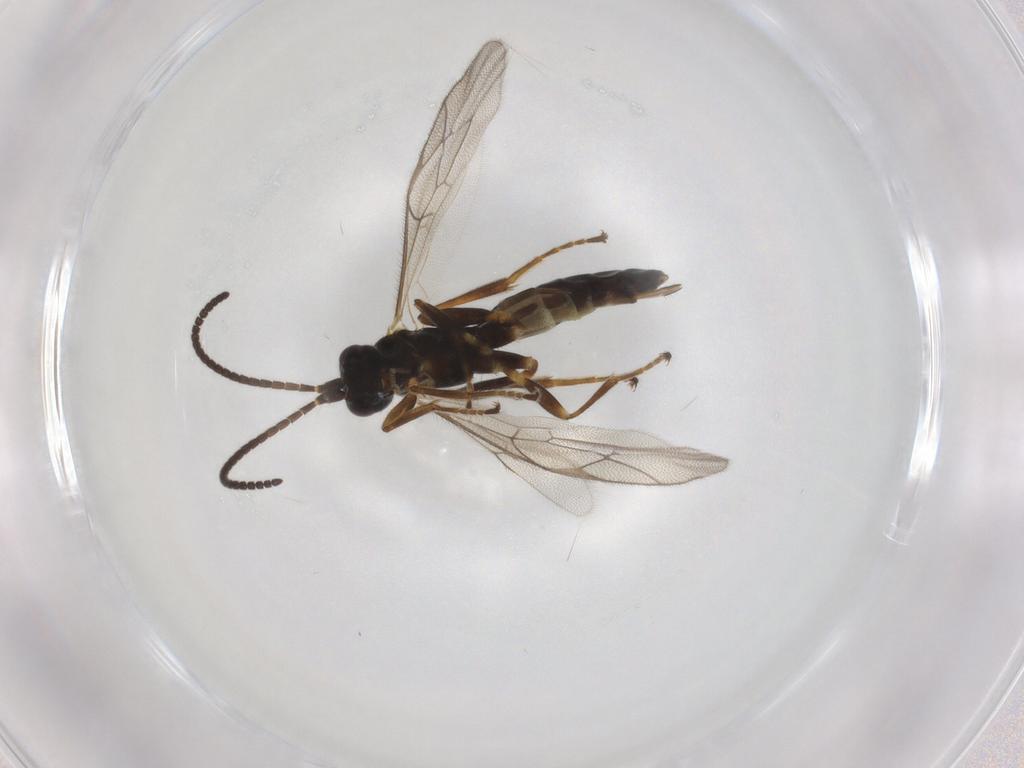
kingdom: Animalia
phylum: Arthropoda
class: Insecta
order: Hymenoptera
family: Ichneumonidae
